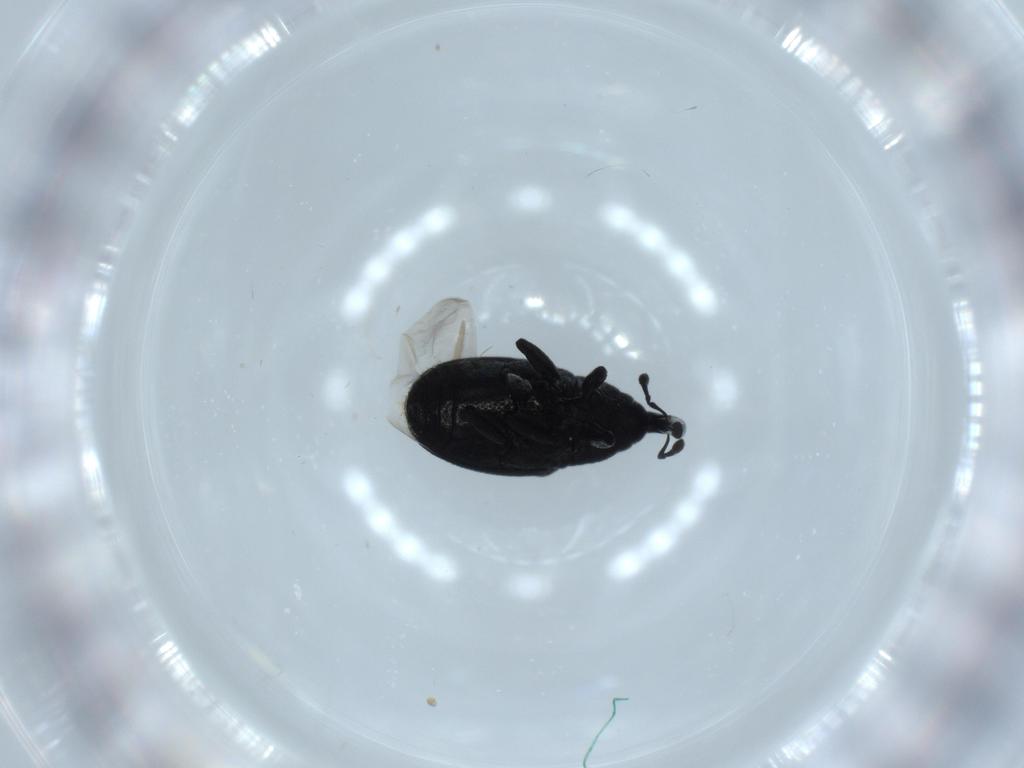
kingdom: Animalia
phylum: Arthropoda
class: Insecta
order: Coleoptera
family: Curculionidae
